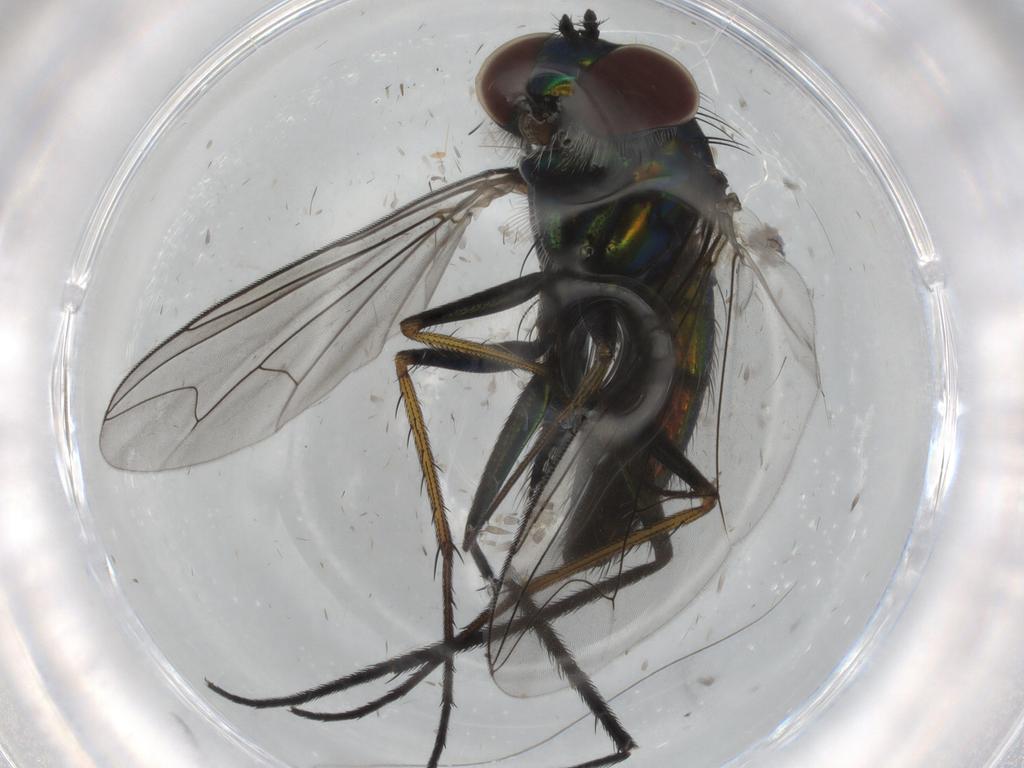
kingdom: Animalia
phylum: Arthropoda
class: Insecta
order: Diptera
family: Dolichopodidae
